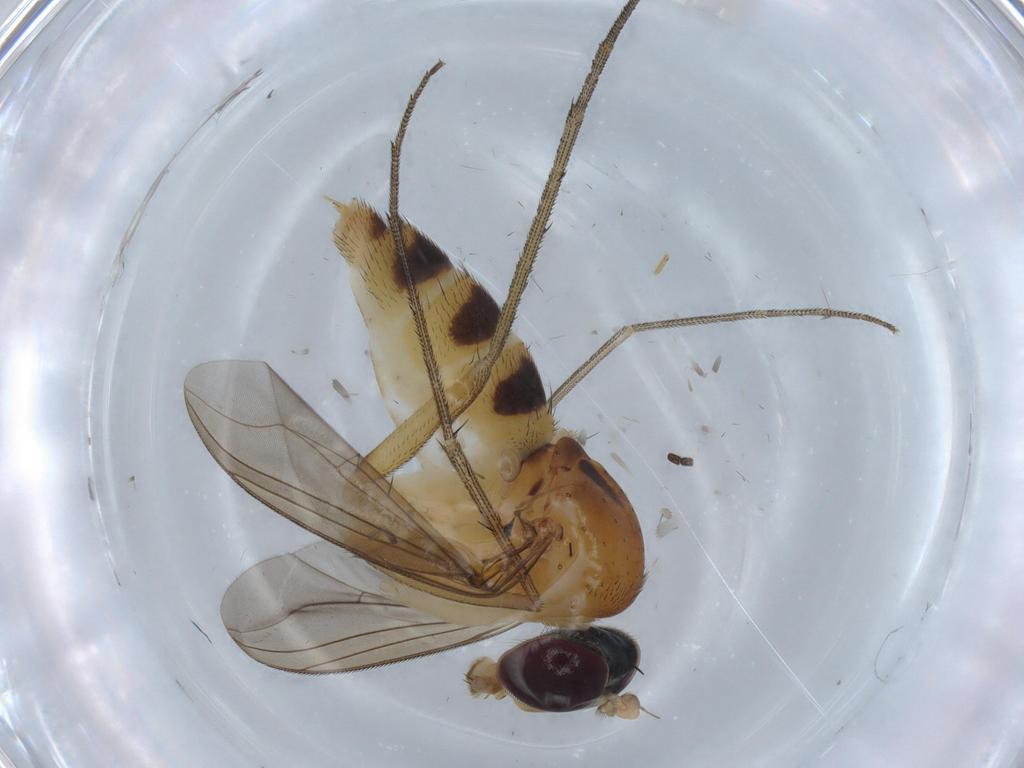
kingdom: Animalia
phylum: Arthropoda
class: Insecta
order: Diptera
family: Dolichopodidae
